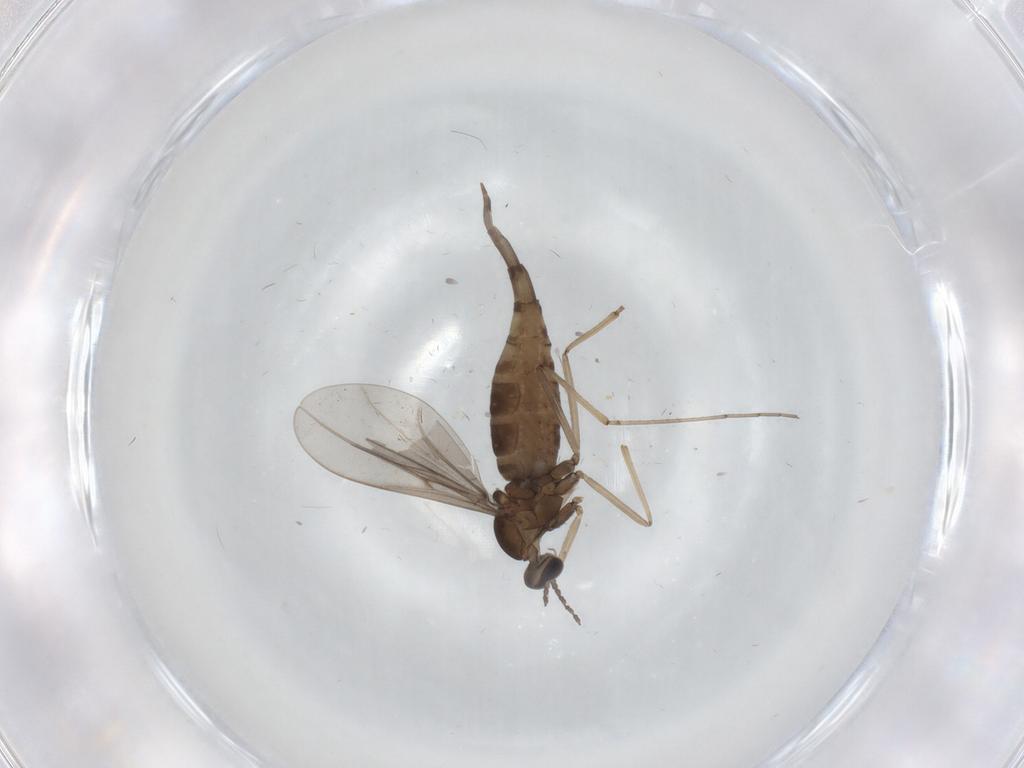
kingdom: Animalia
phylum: Arthropoda
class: Insecta
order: Diptera
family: Cecidomyiidae
